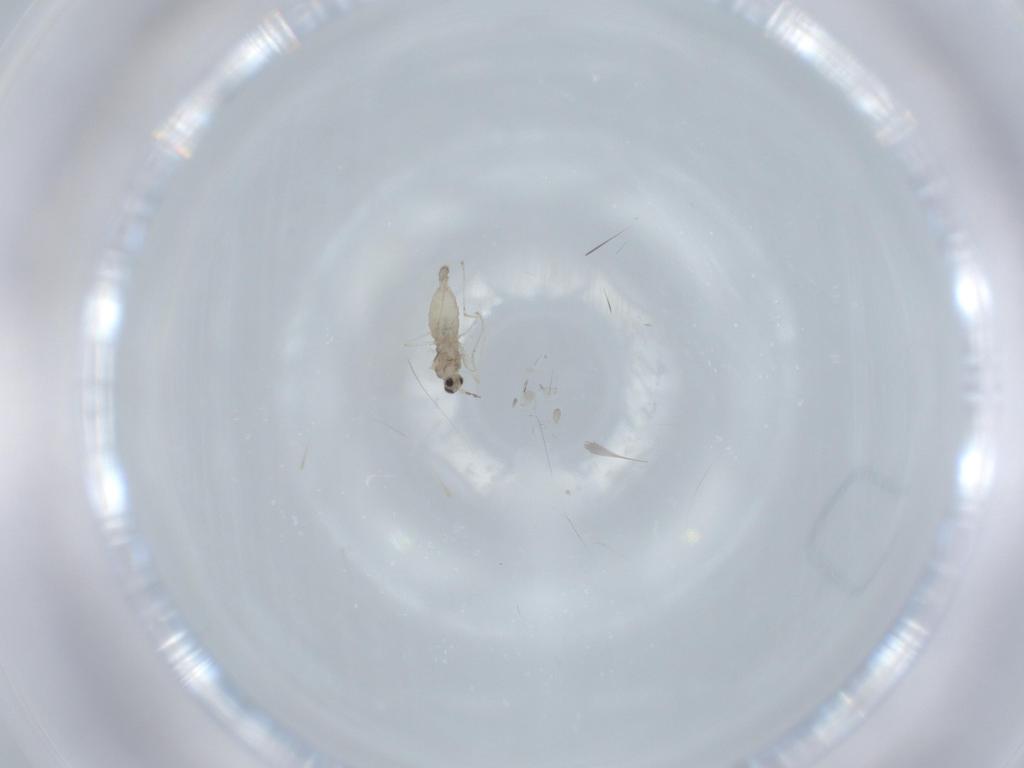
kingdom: Animalia
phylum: Arthropoda
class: Insecta
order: Diptera
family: Cecidomyiidae
